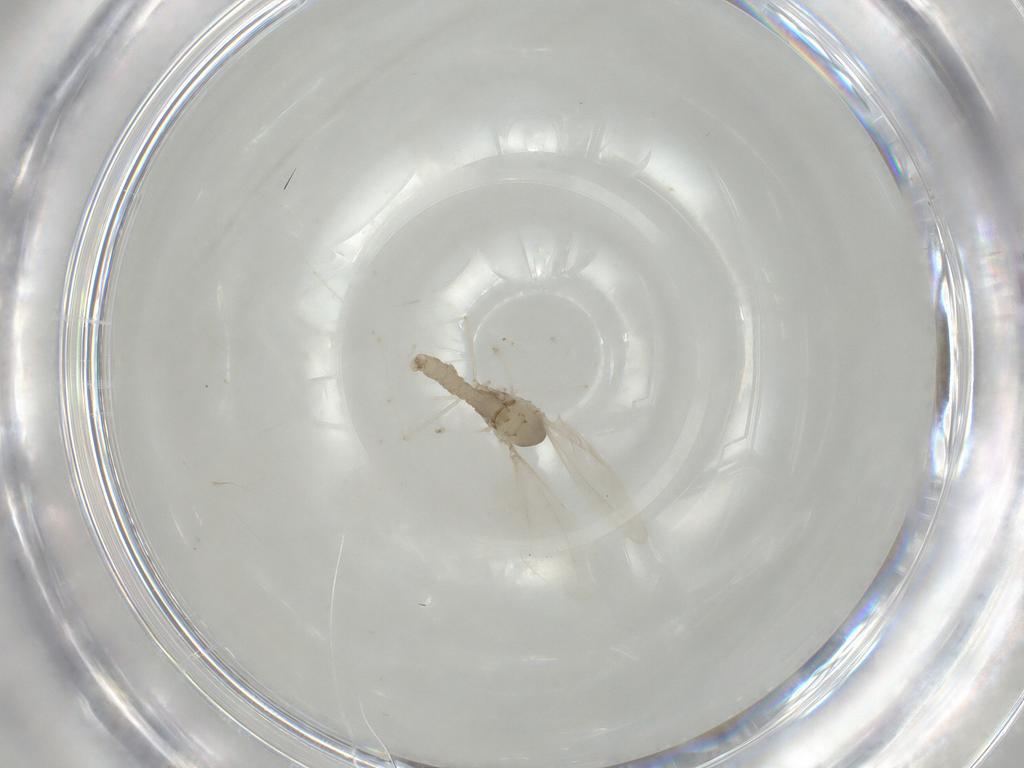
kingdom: Animalia
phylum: Arthropoda
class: Insecta
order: Diptera
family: Cecidomyiidae
